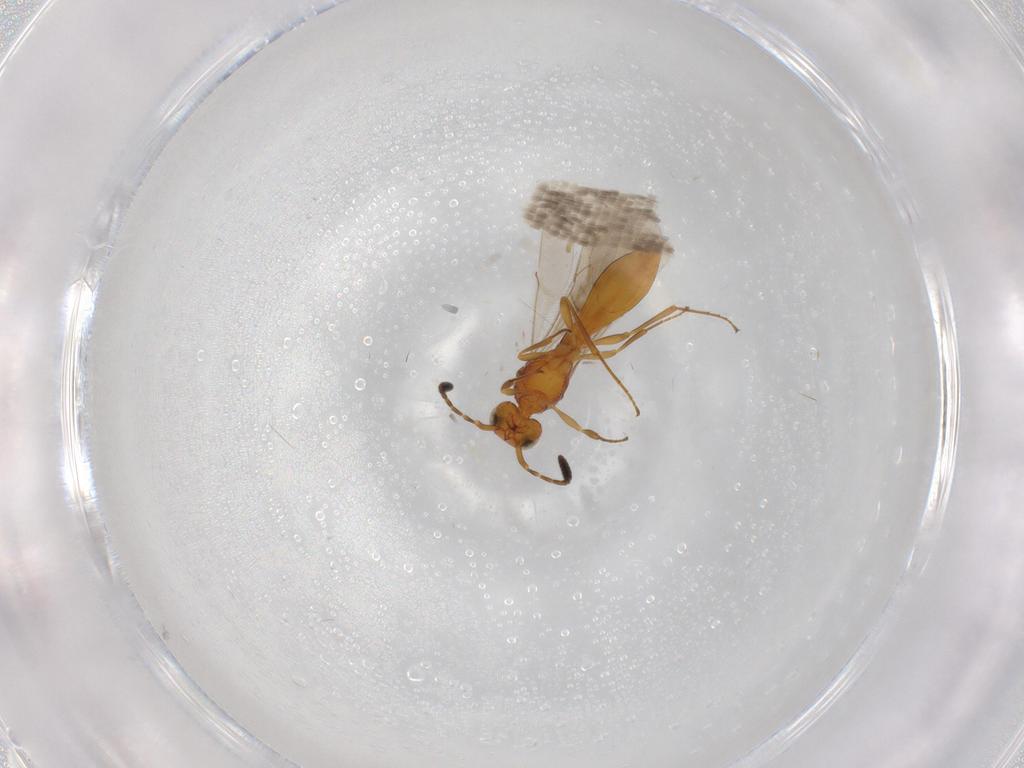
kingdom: Animalia
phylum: Arthropoda
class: Insecta
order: Hymenoptera
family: Scelionidae
